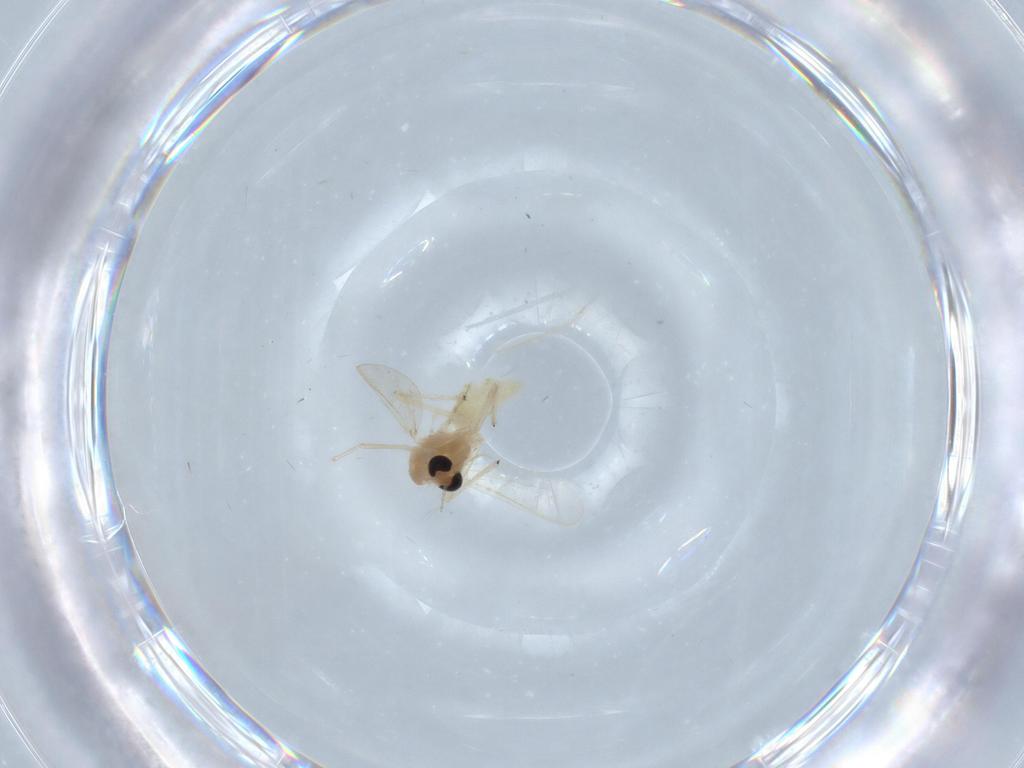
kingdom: Animalia
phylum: Arthropoda
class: Insecta
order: Diptera
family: Chironomidae
